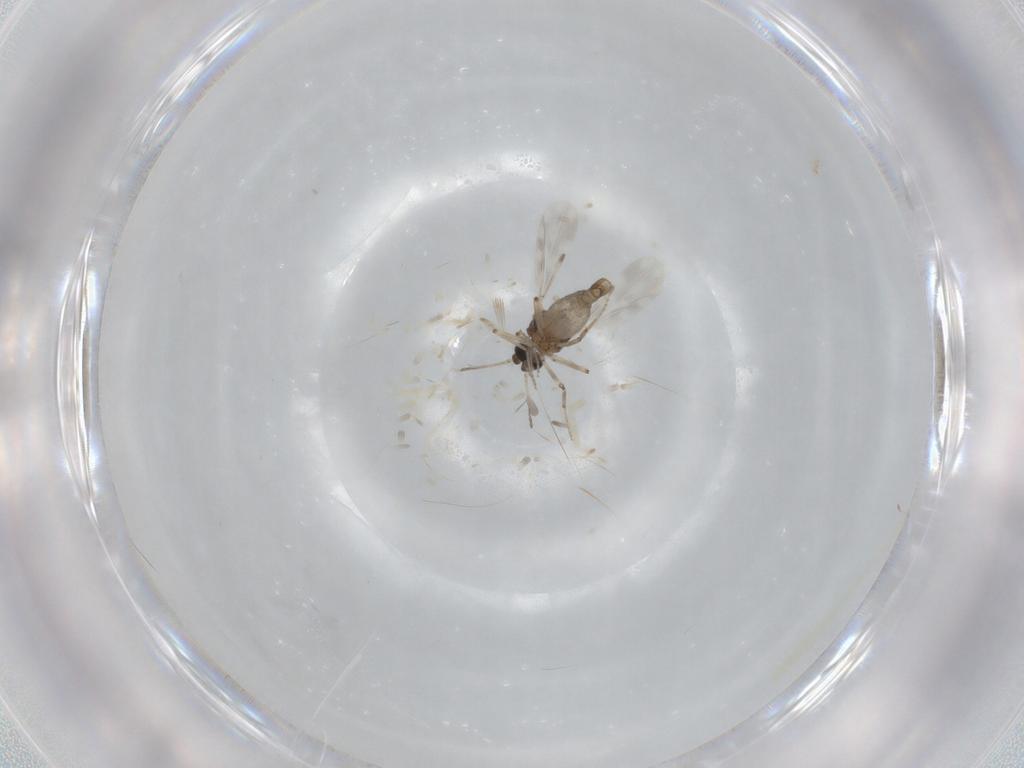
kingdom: Animalia
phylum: Arthropoda
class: Insecta
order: Diptera
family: Ceratopogonidae
